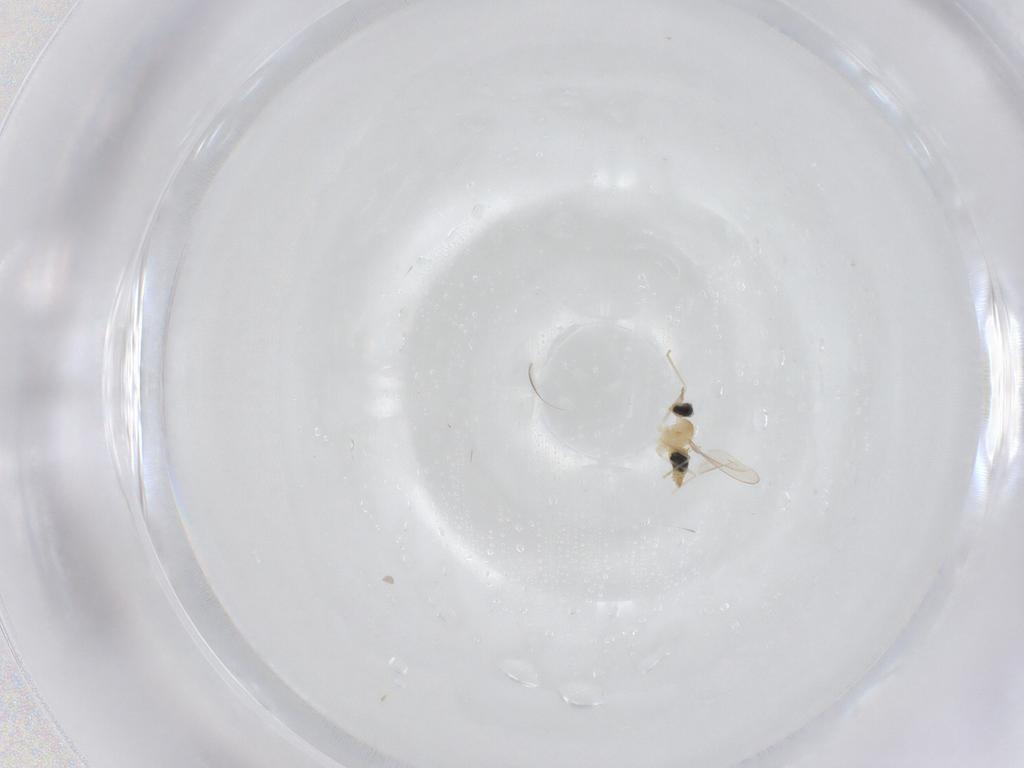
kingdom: Animalia
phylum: Arthropoda
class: Insecta
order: Diptera
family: Cecidomyiidae
